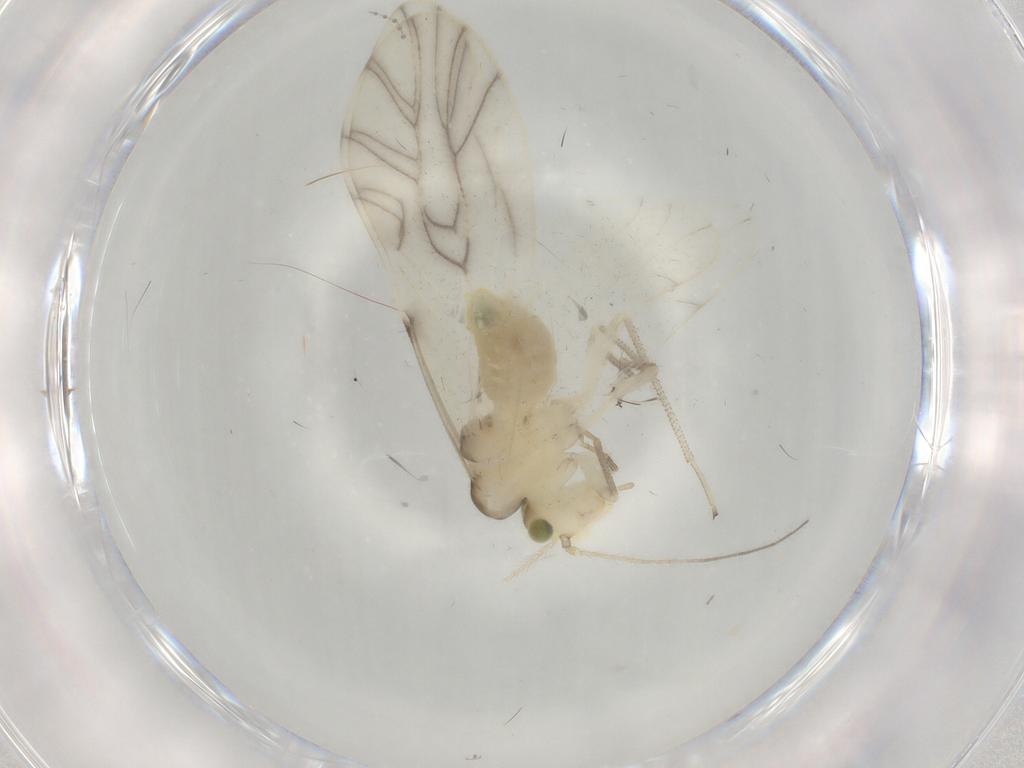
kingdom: Animalia
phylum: Arthropoda
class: Insecta
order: Psocodea
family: Caeciliusidae
